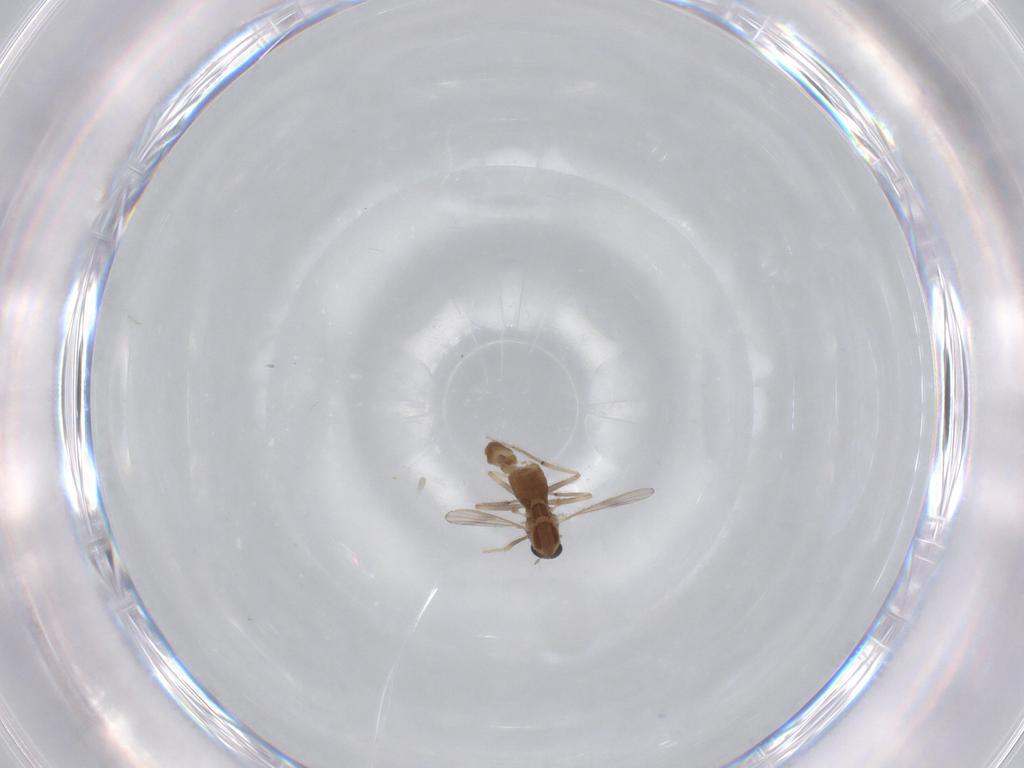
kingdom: Animalia
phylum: Arthropoda
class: Insecta
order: Diptera
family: Chironomidae
